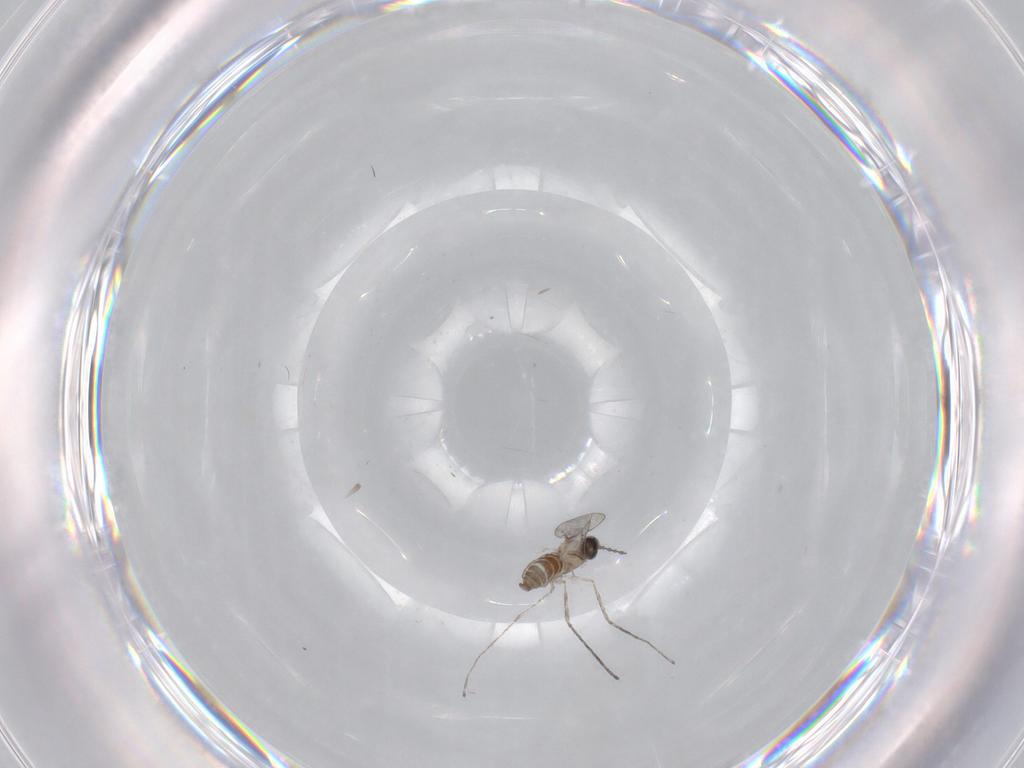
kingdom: Animalia
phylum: Arthropoda
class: Insecta
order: Diptera
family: Cecidomyiidae
